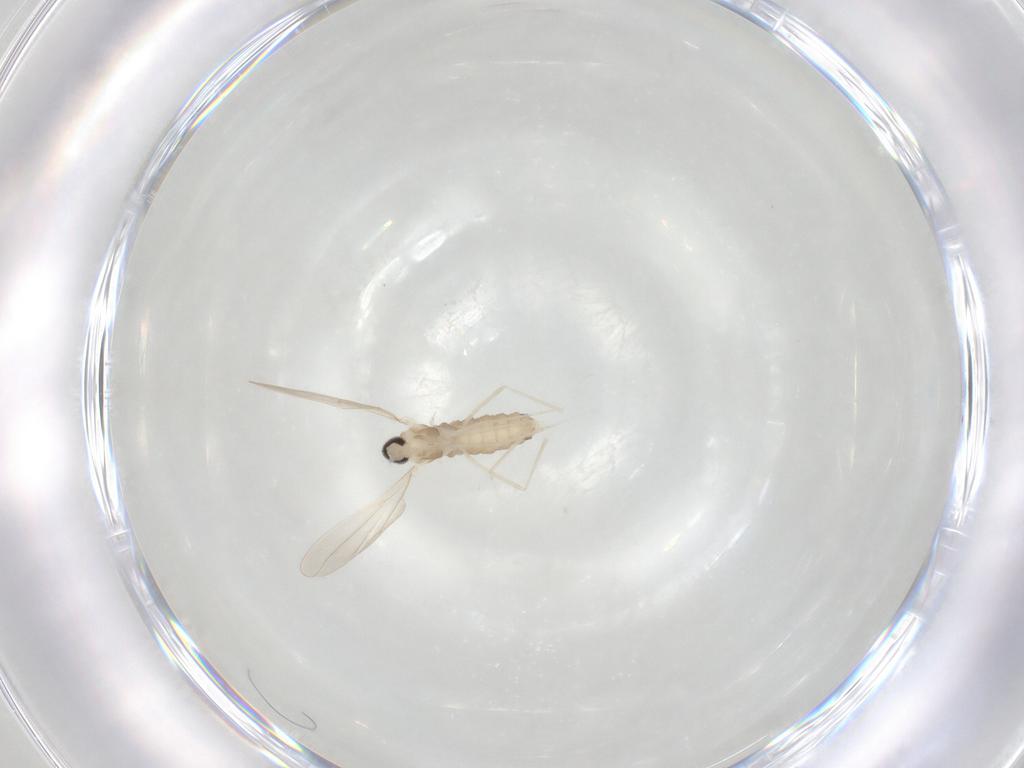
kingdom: Animalia
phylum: Arthropoda
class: Insecta
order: Diptera
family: Cecidomyiidae
